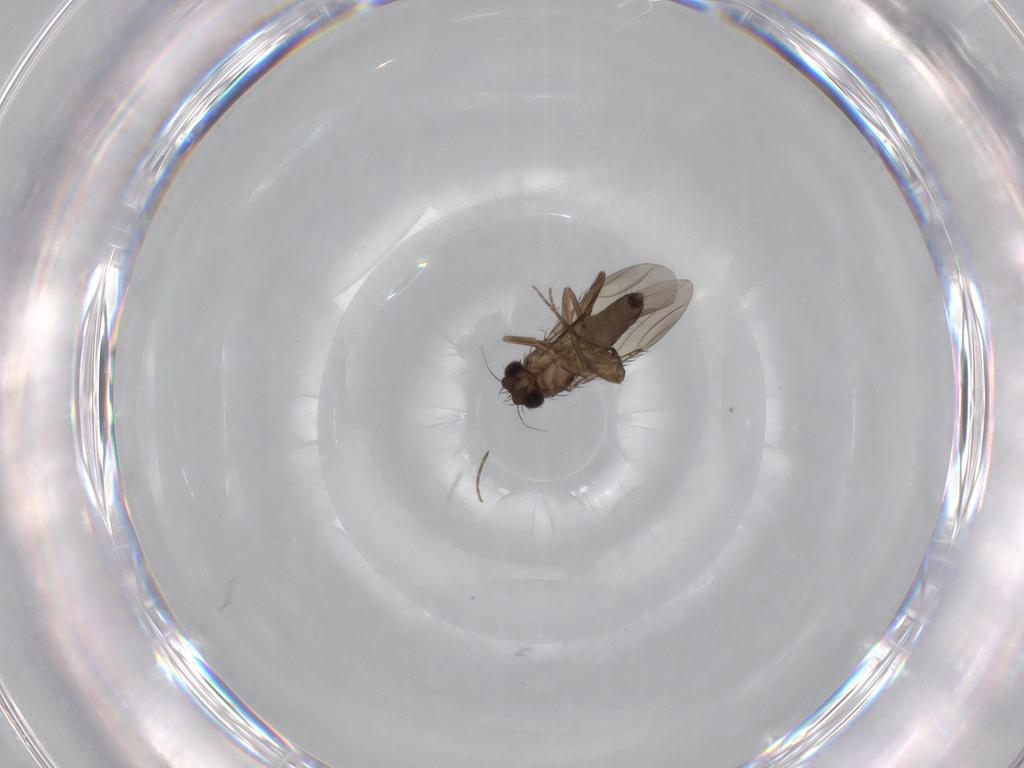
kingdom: Animalia
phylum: Arthropoda
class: Insecta
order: Diptera
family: Phoridae
